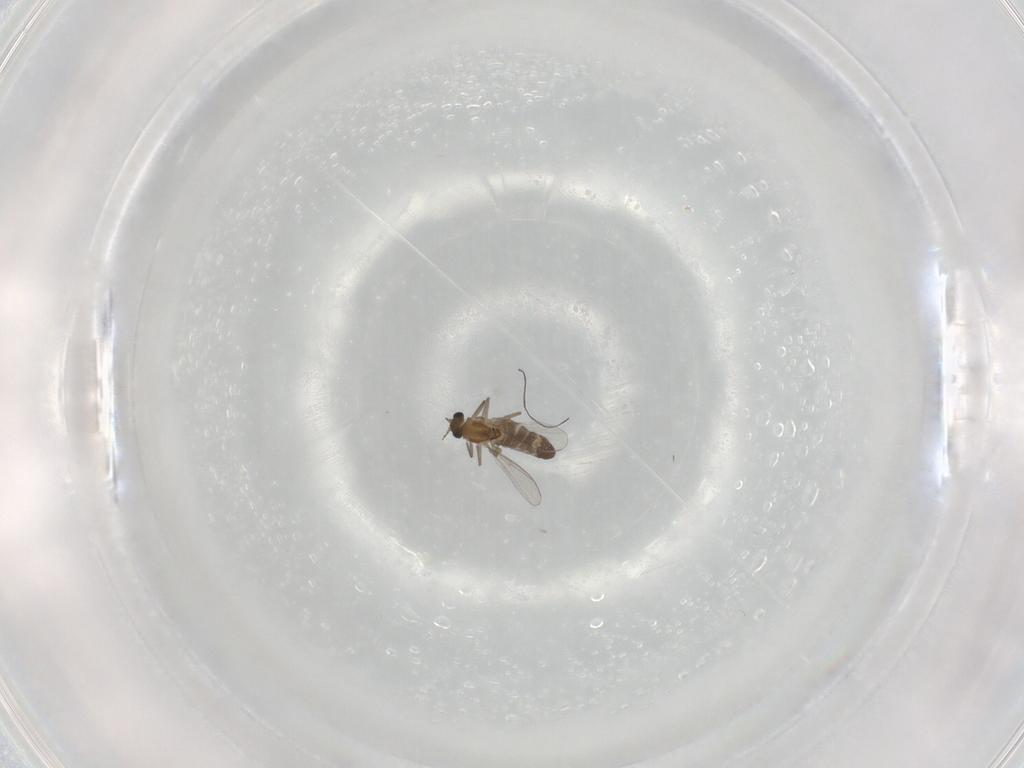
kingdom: Animalia
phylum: Arthropoda
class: Insecta
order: Diptera
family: Chironomidae
